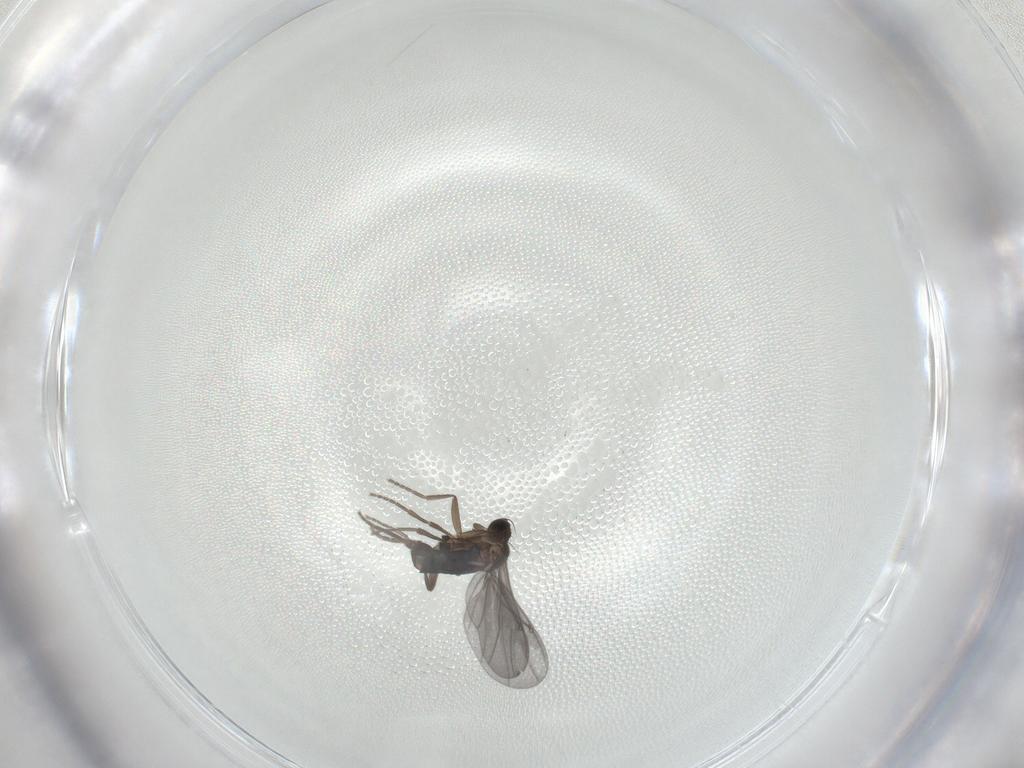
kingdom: Animalia
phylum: Arthropoda
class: Insecta
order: Diptera
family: Phoridae
